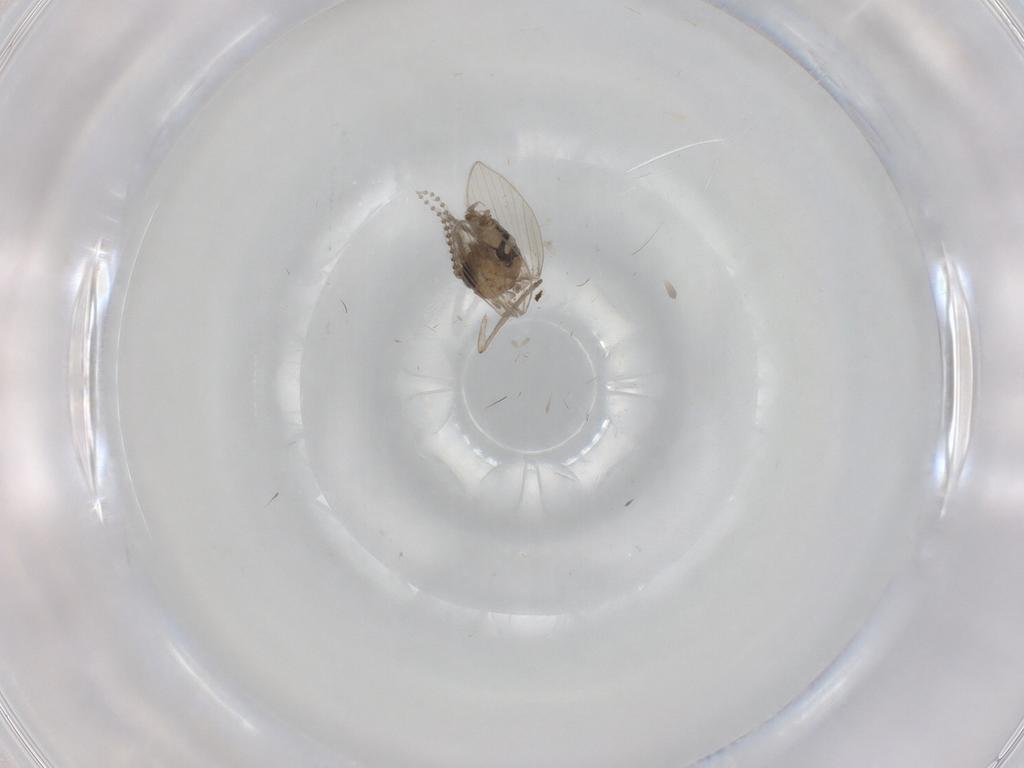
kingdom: Animalia
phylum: Arthropoda
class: Insecta
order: Diptera
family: Psychodidae
